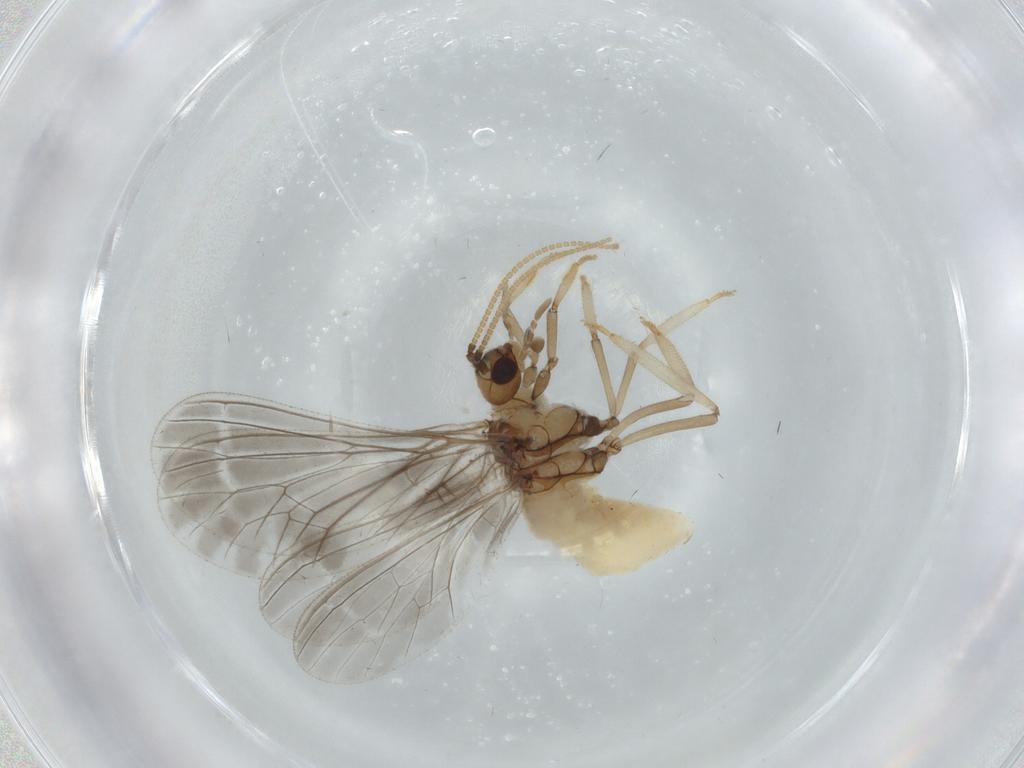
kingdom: Animalia
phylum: Arthropoda
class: Insecta
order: Neuroptera
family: Coniopterygidae
